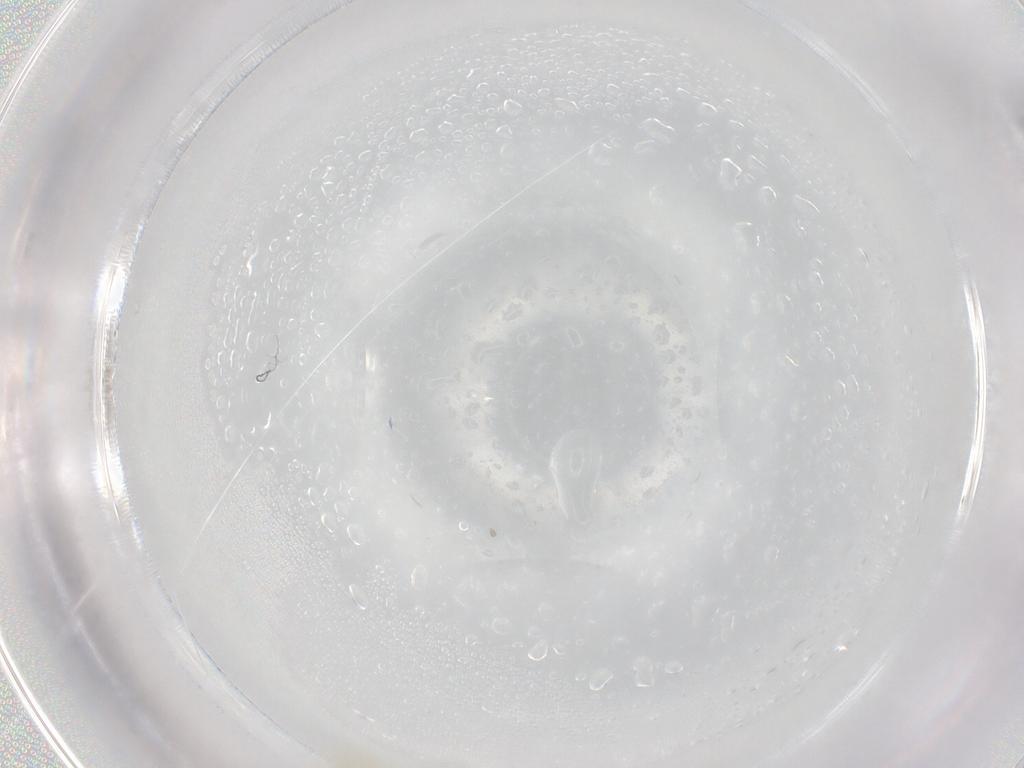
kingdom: Animalia
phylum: Arthropoda
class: Insecta
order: Hymenoptera
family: Aphelinidae
